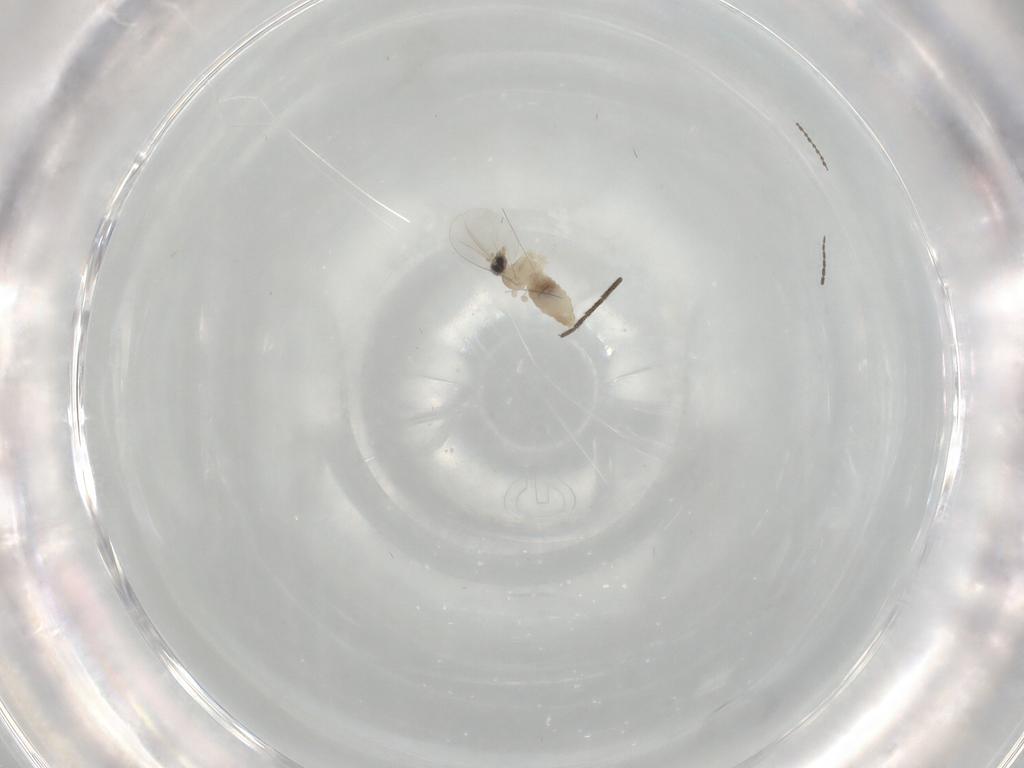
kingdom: Animalia
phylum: Arthropoda
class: Insecta
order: Diptera
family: Cecidomyiidae
